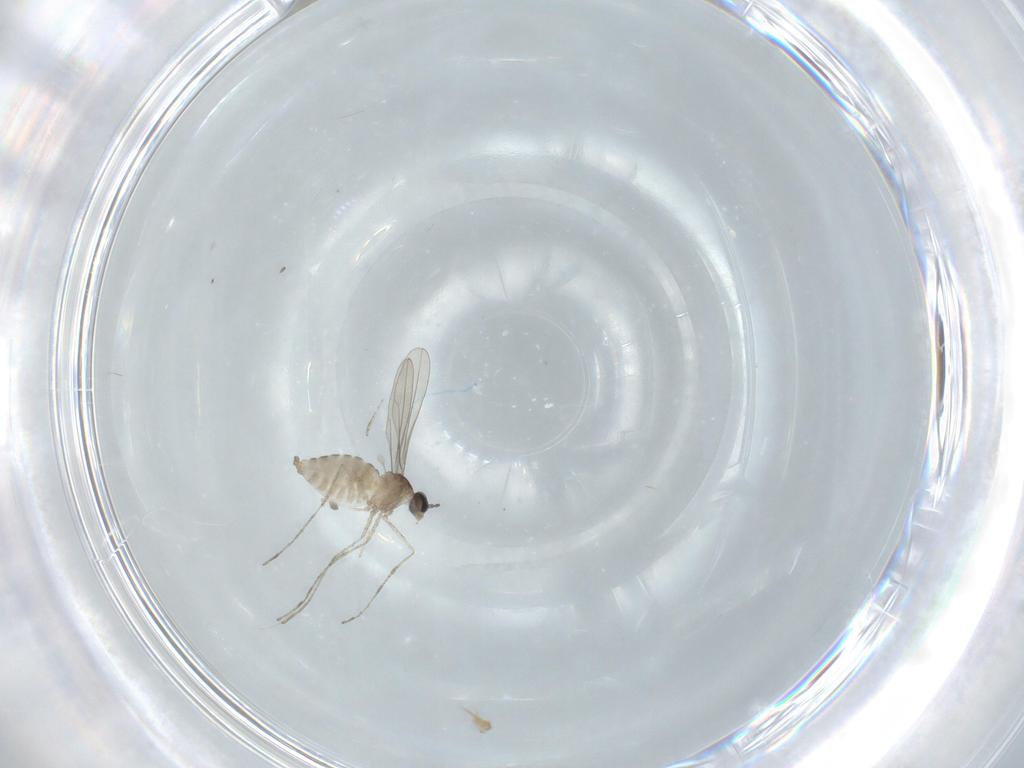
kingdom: Animalia
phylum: Arthropoda
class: Insecta
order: Diptera
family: Cecidomyiidae
